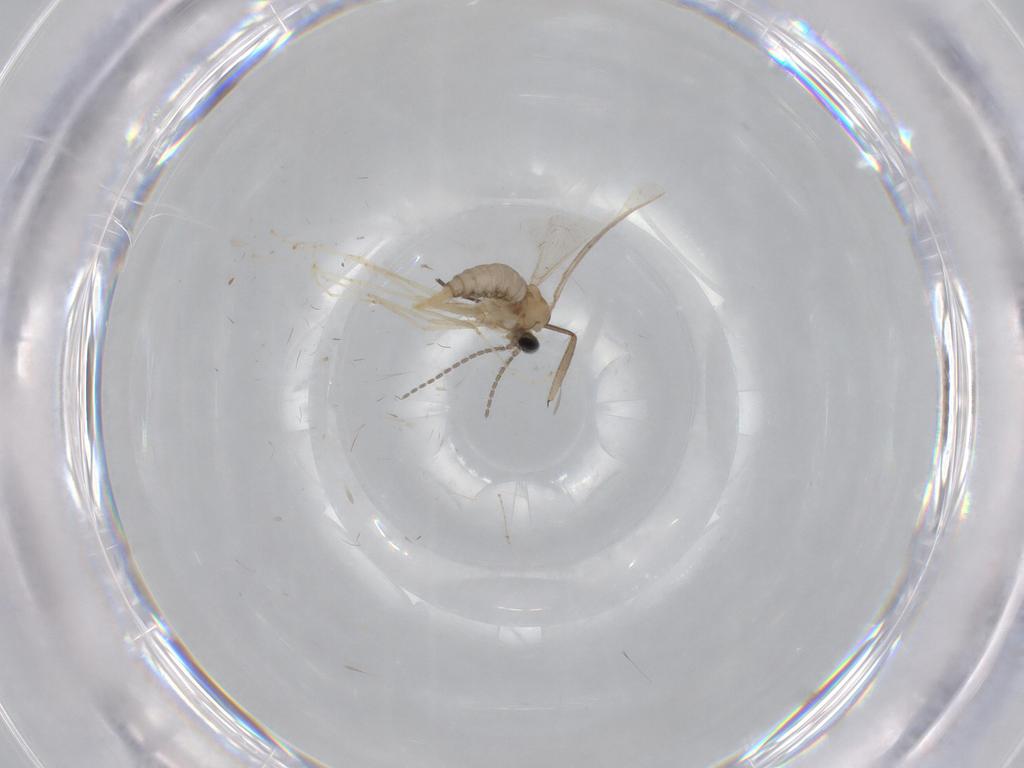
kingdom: Animalia
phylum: Arthropoda
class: Insecta
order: Diptera
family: Cecidomyiidae
